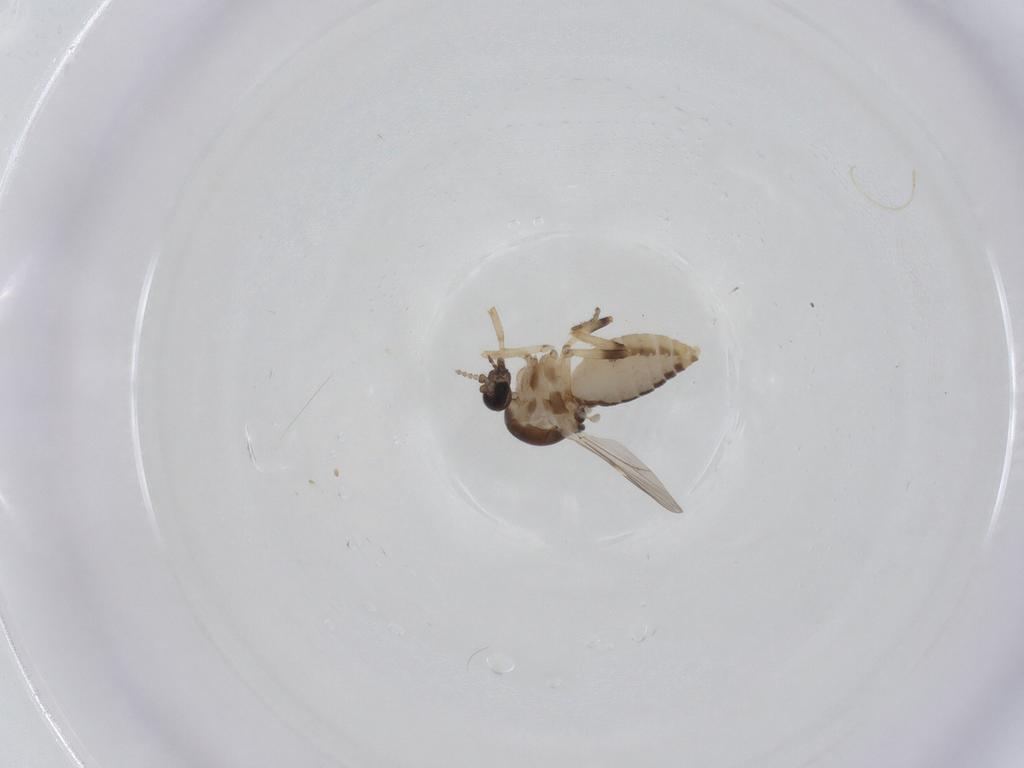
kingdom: Animalia
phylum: Arthropoda
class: Insecta
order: Diptera
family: Ceratopogonidae
